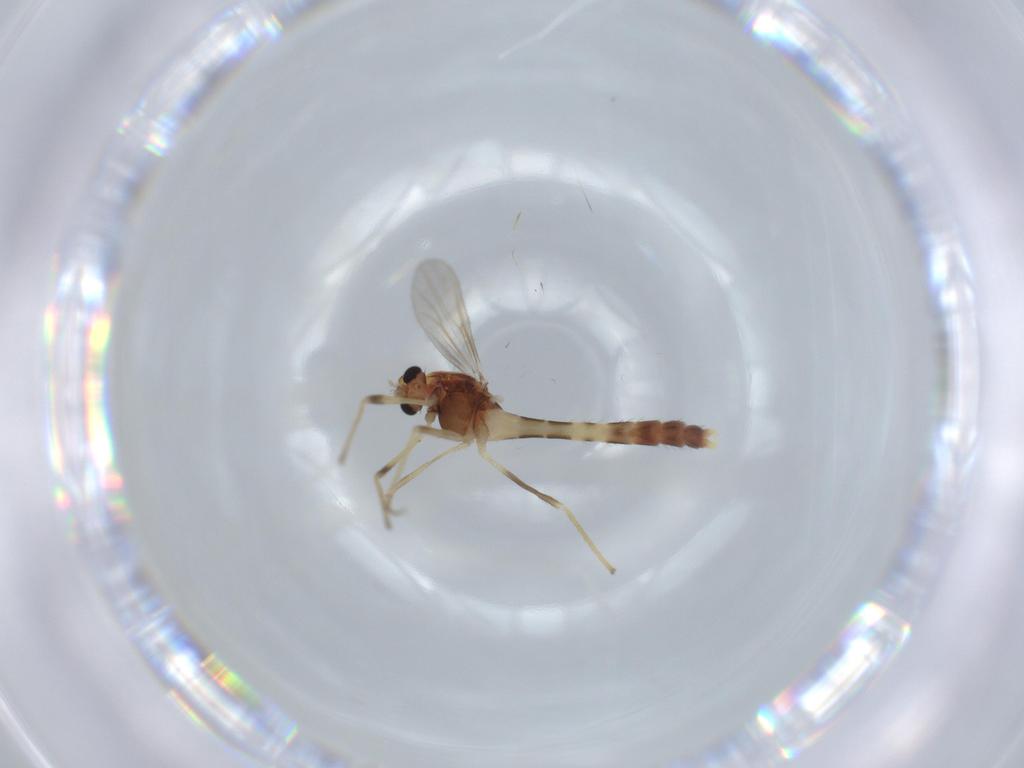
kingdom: Animalia
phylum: Arthropoda
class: Insecta
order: Diptera
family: Chironomidae
